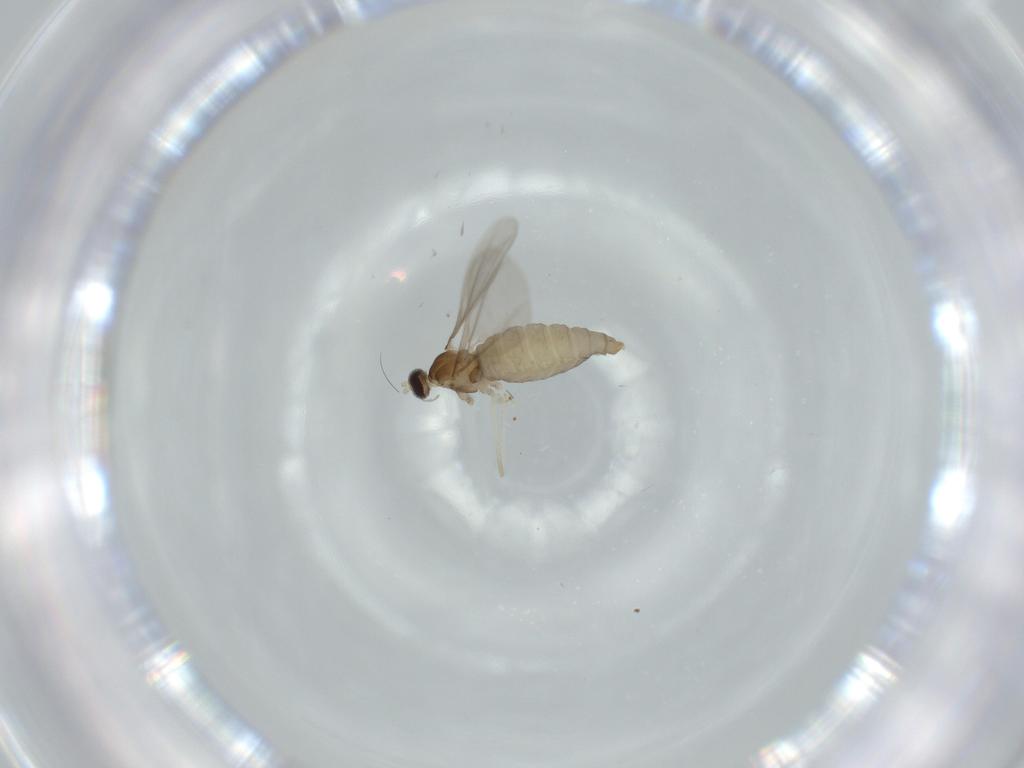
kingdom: Animalia
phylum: Arthropoda
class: Insecta
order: Diptera
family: Cecidomyiidae
